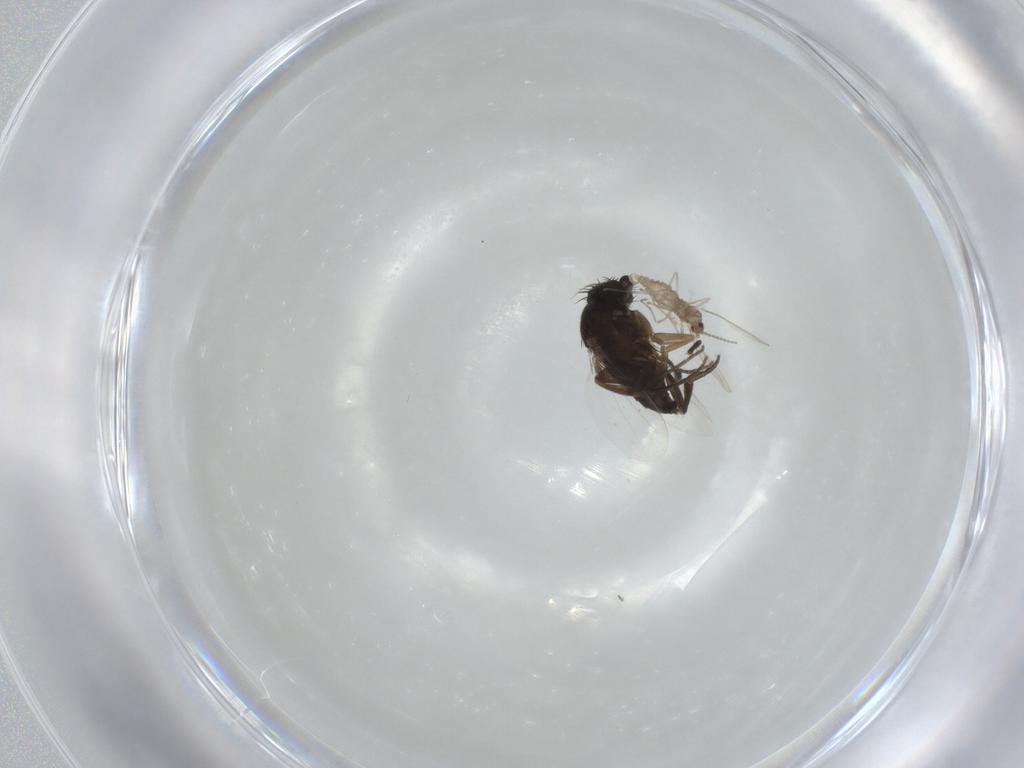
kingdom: Animalia
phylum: Arthropoda
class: Insecta
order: Diptera
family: Phoridae
